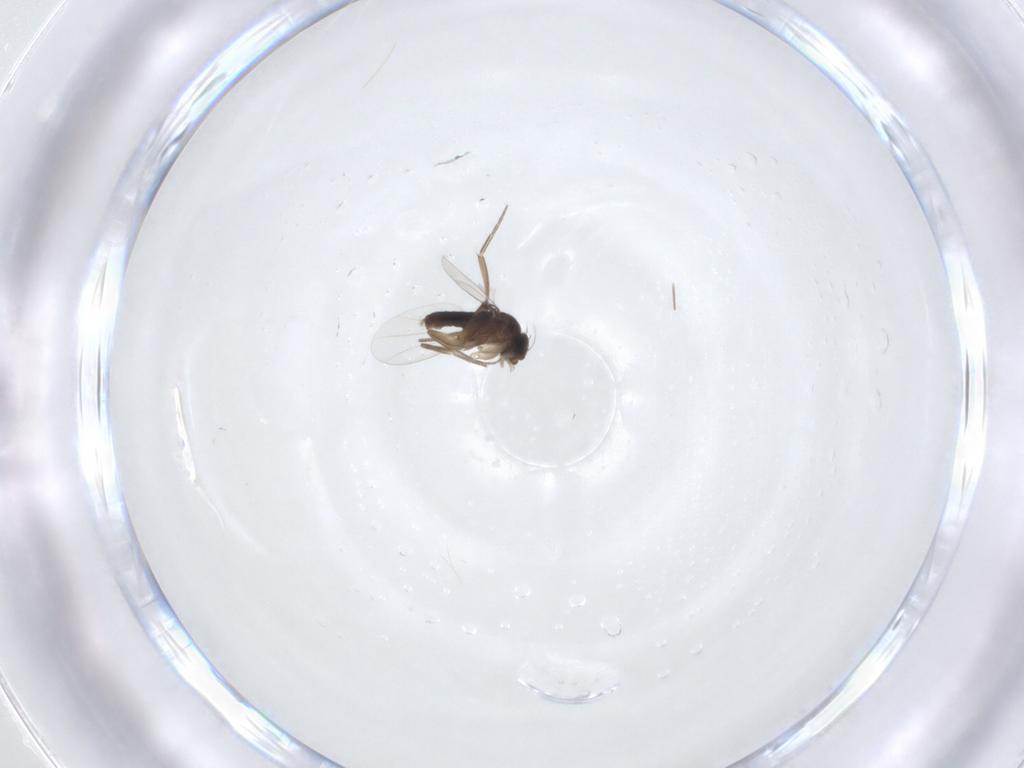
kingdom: Animalia
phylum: Arthropoda
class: Insecta
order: Diptera
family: Phoridae
